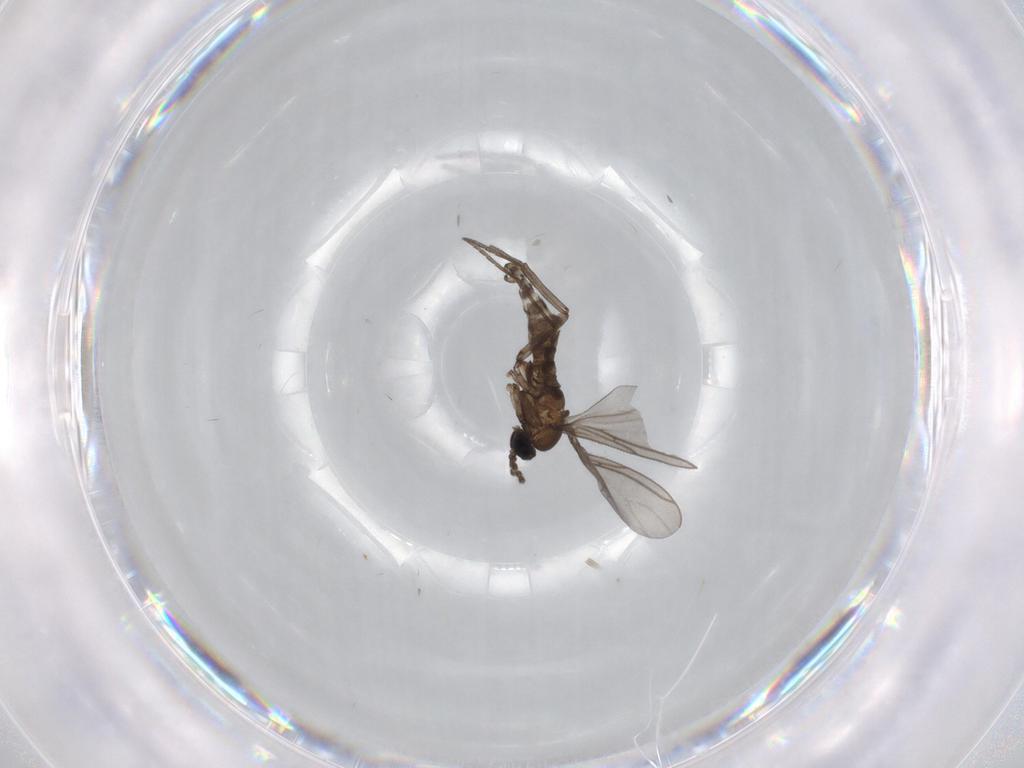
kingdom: Animalia
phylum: Arthropoda
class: Insecta
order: Diptera
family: Sciaridae
